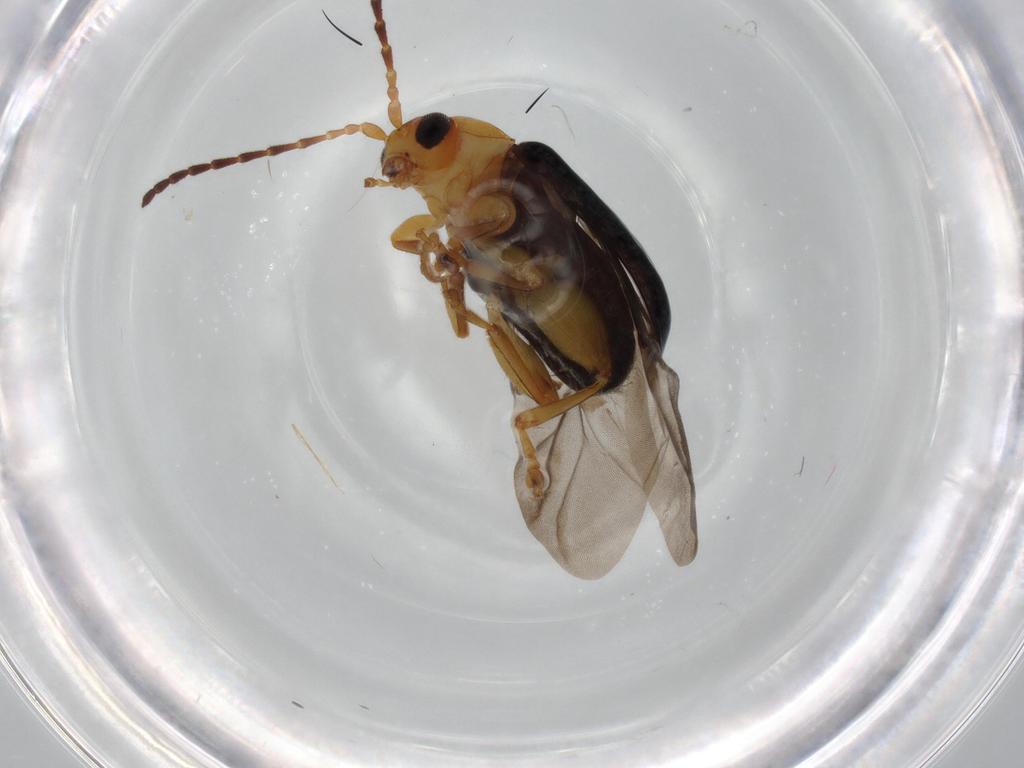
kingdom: Animalia
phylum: Arthropoda
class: Insecta
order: Coleoptera
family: Chrysomelidae
